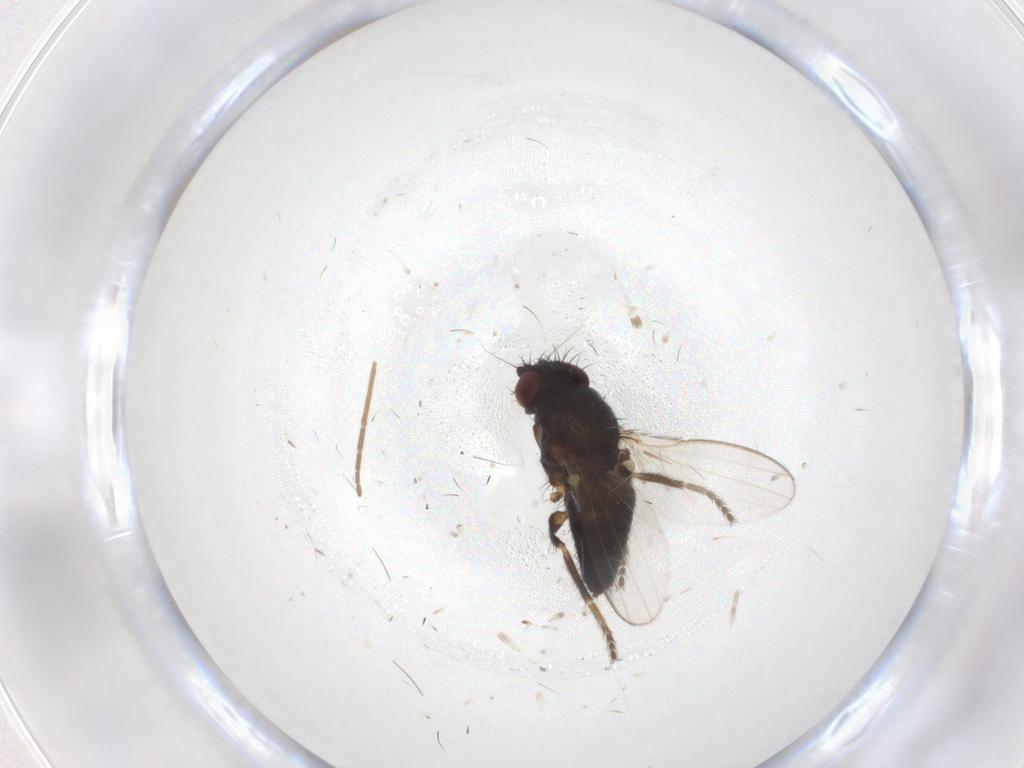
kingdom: Animalia
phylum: Arthropoda
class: Insecta
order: Diptera
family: Milichiidae
